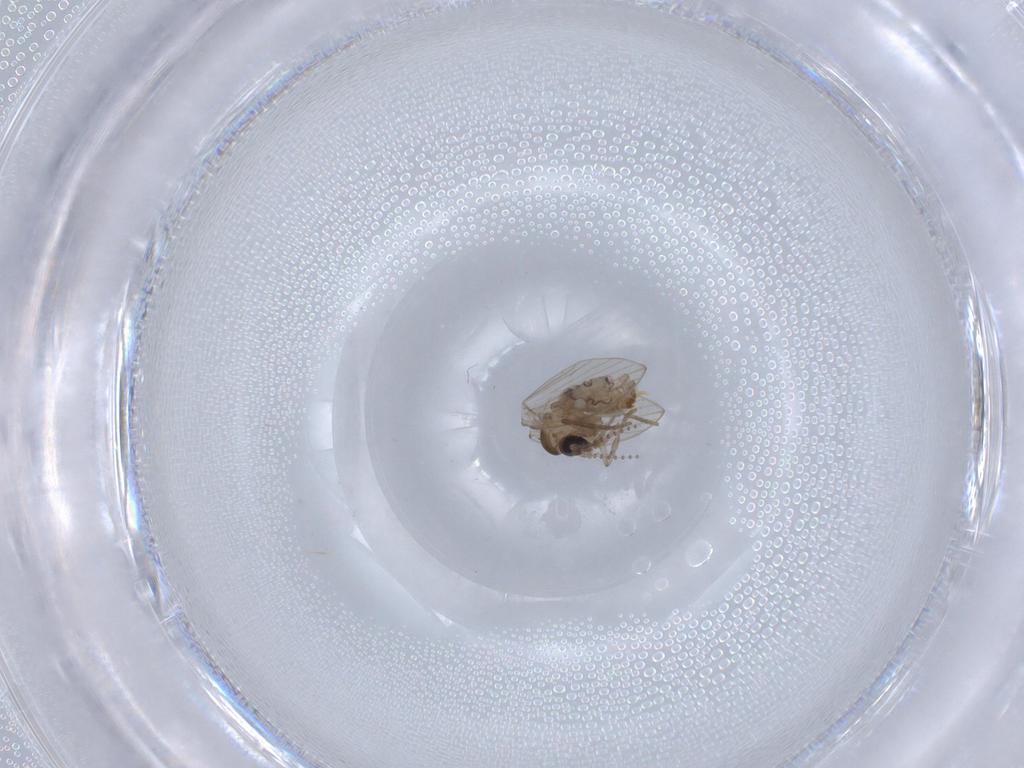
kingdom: Animalia
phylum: Arthropoda
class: Insecta
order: Diptera
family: Psychodidae
